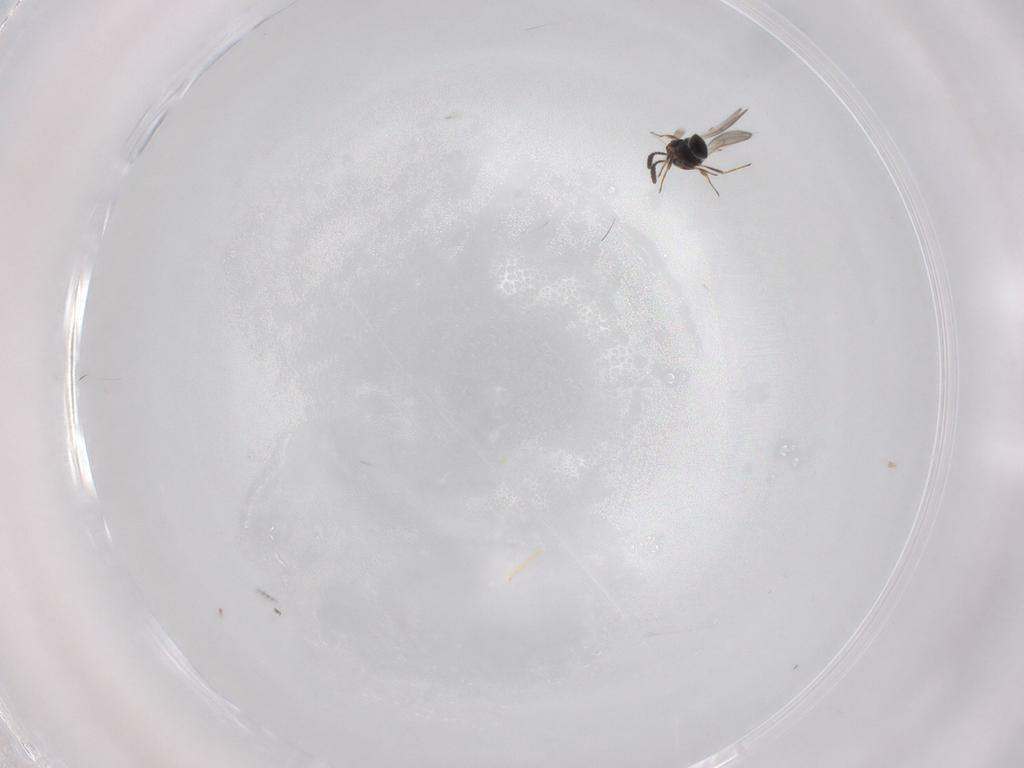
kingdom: Animalia
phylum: Arthropoda
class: Insecta
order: Hymenoptera
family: Scelionidae
